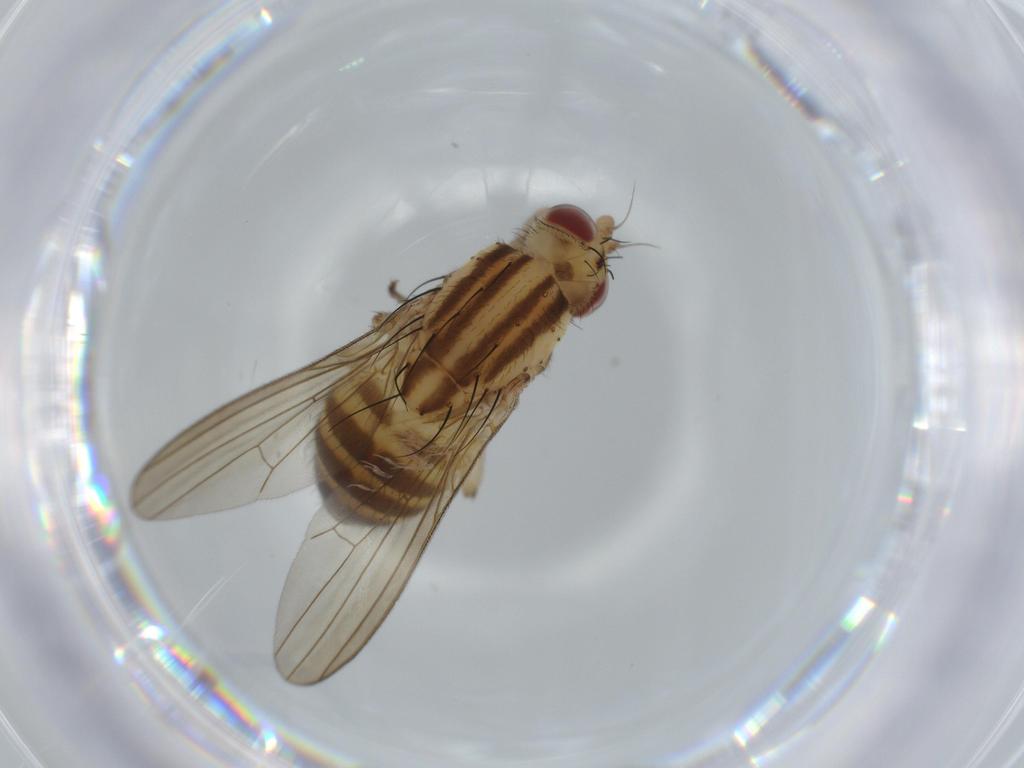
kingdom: Animalia
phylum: Arthropoda
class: Insecta
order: Diptera
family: Lauxaniidae
